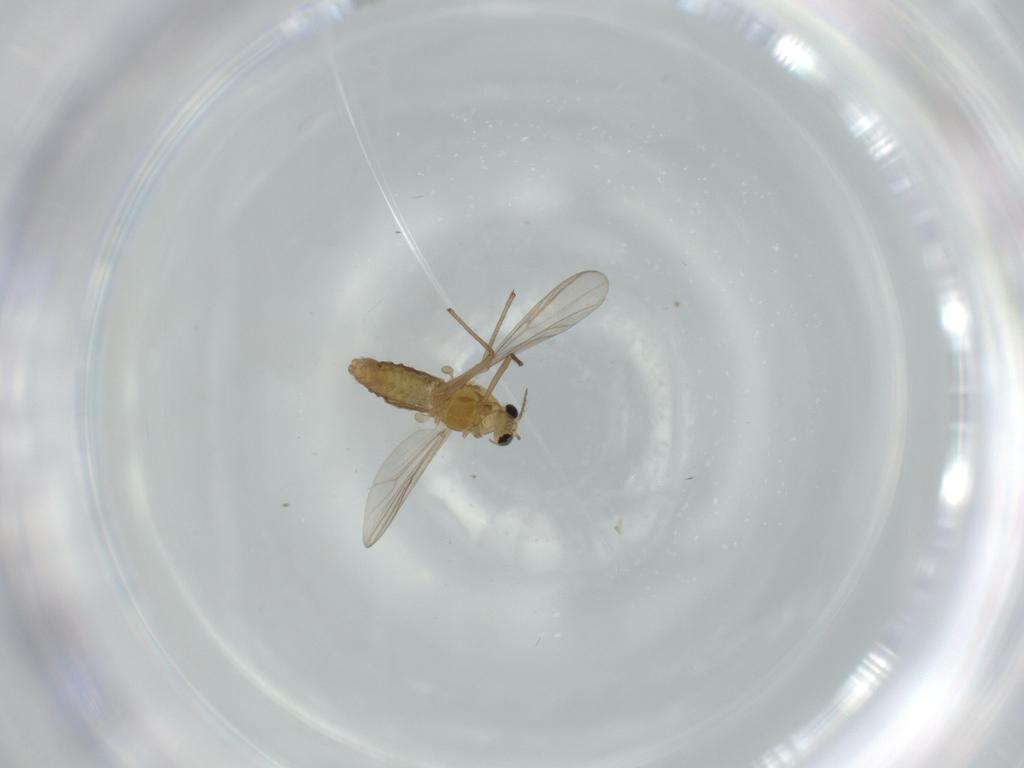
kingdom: Animalia
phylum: Arthropoda
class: Insecta
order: Diptera
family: Chironomidae
